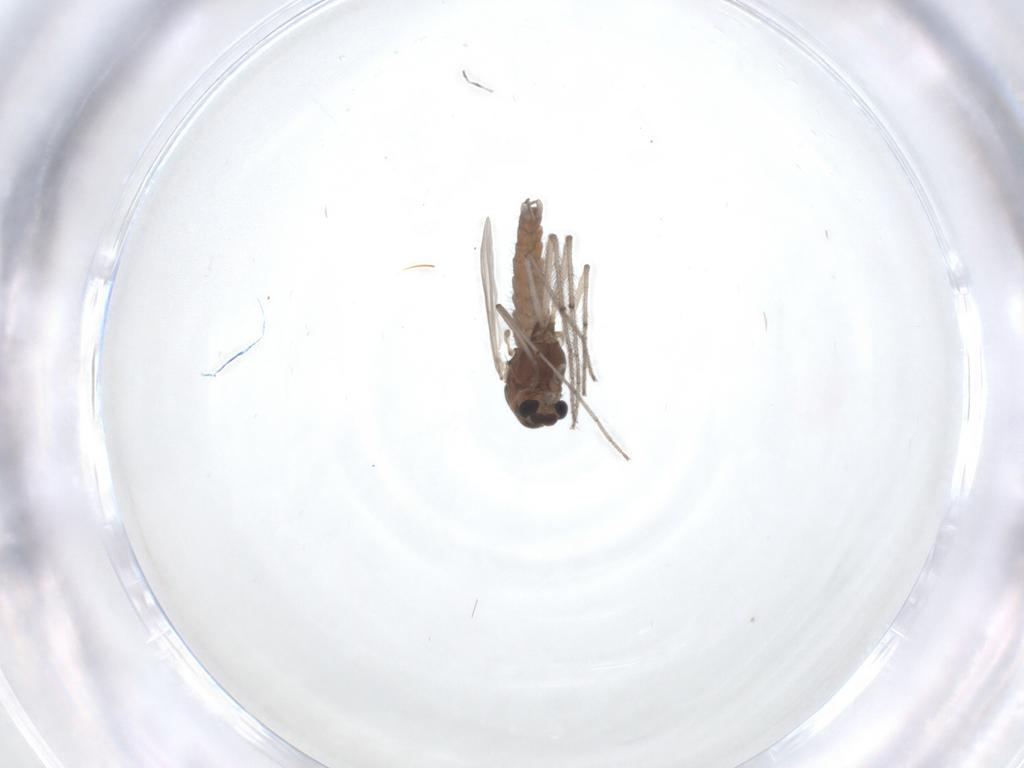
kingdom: Animalia
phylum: Arthropoda
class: Insecta
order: Diptera
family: Chironomidae
